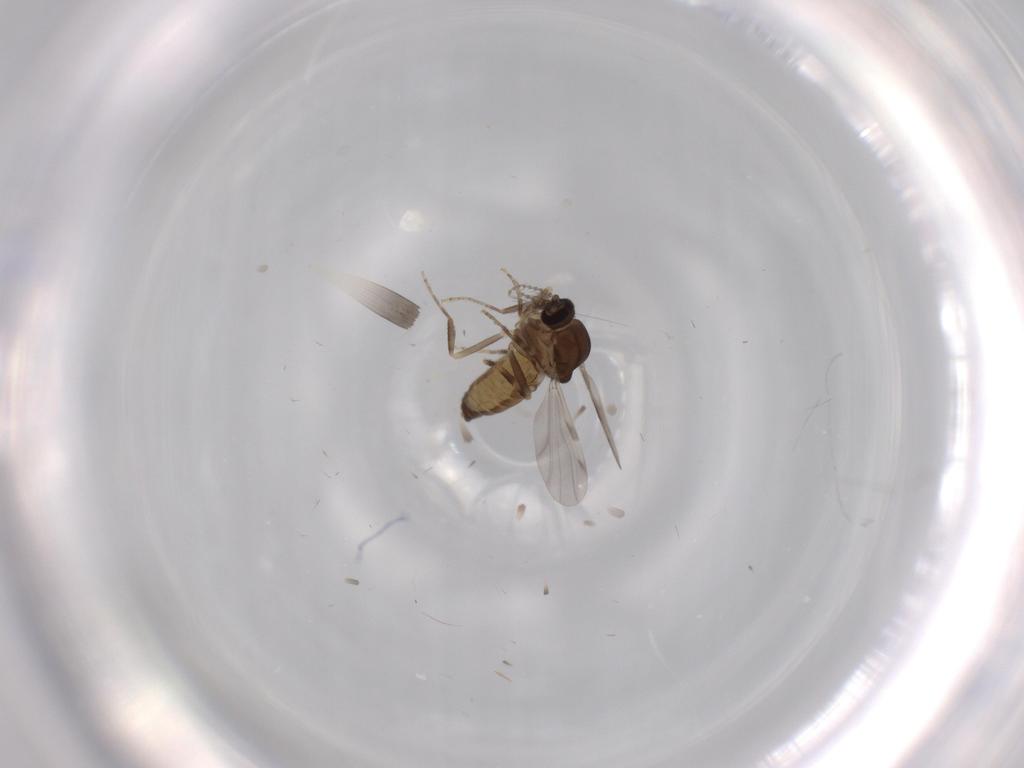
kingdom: Animalia
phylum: Arthropoda
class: Insecta
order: Diptera
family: Ceratopogonidae
